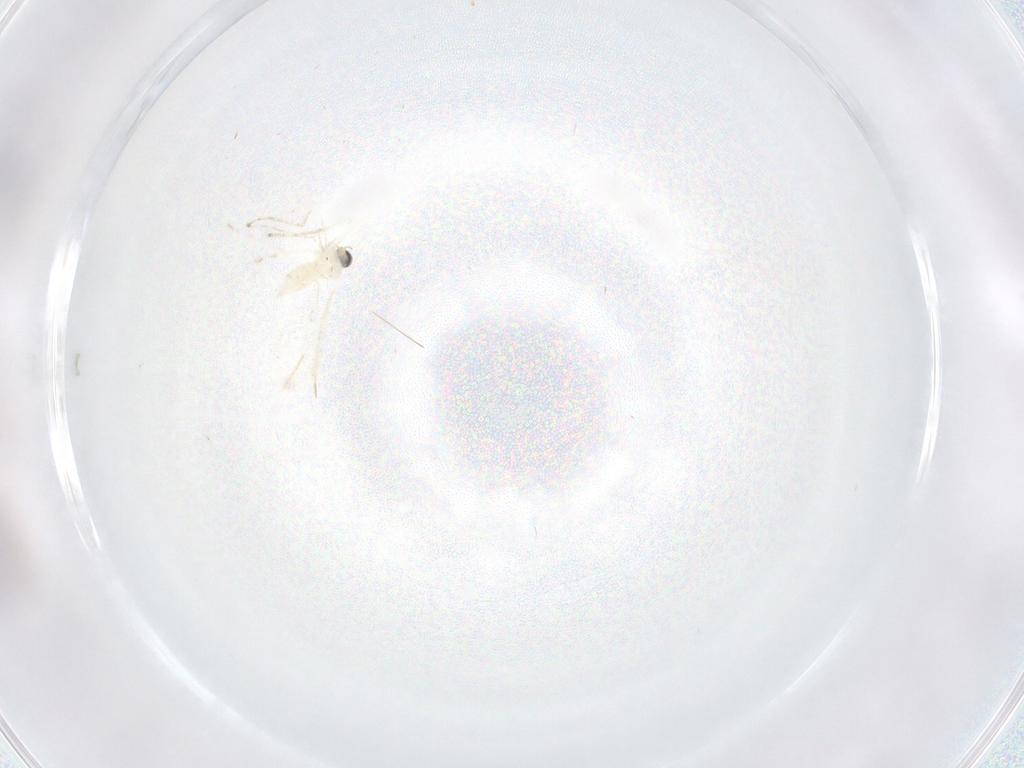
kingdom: Animalia
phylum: Arthropoda
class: Insecta
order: Diptera
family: Cecidomyiidae
